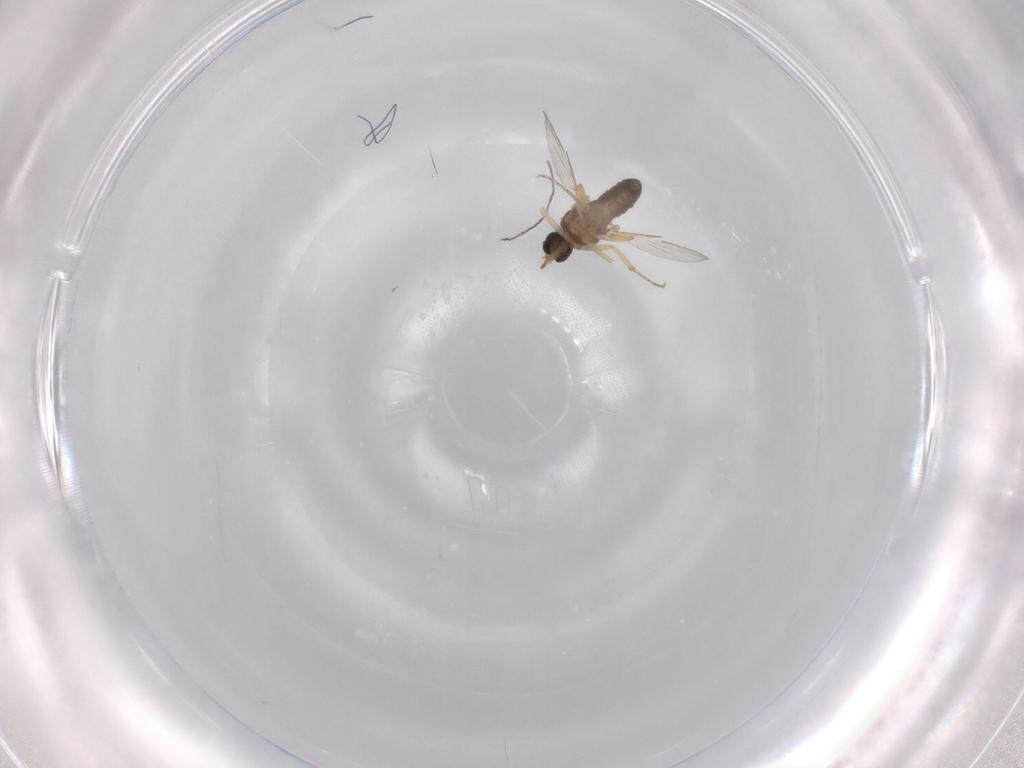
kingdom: Animalia
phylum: Arthropoda
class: Insecta
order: Diptera
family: Ceratopogonidae
